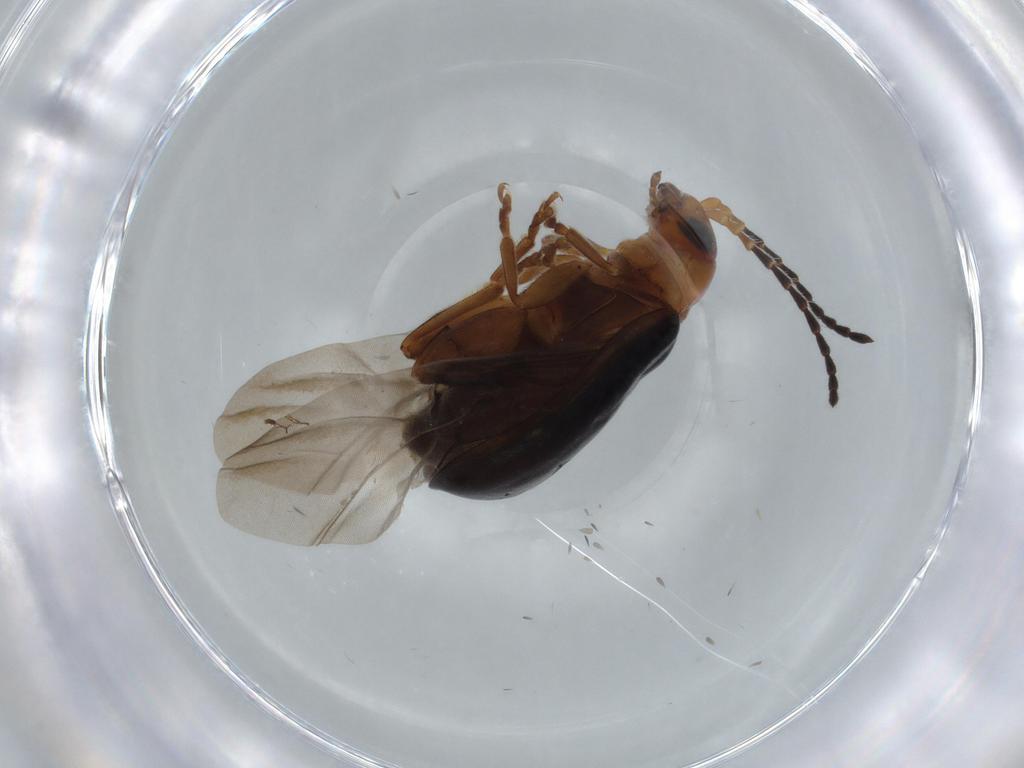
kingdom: Animalia
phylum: Arthropoda
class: Insecta
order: Coleoptera
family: Chrysomelidae
